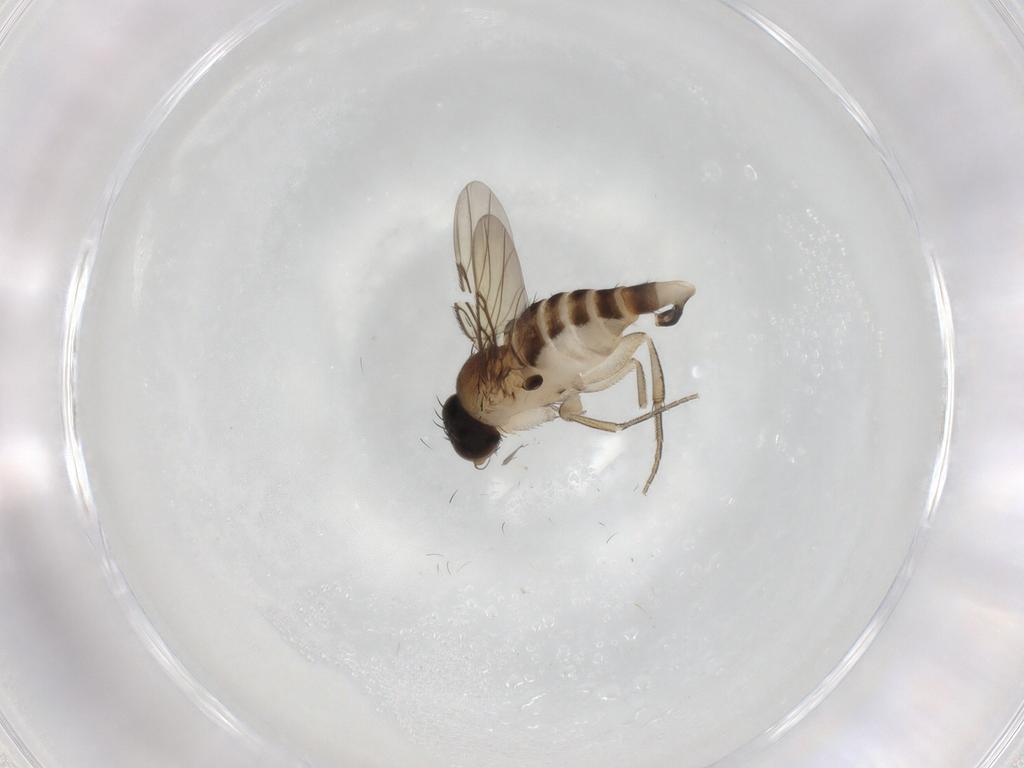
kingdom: Animalia
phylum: Arthropoda
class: Insecta
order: Diptera
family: Phoridae
